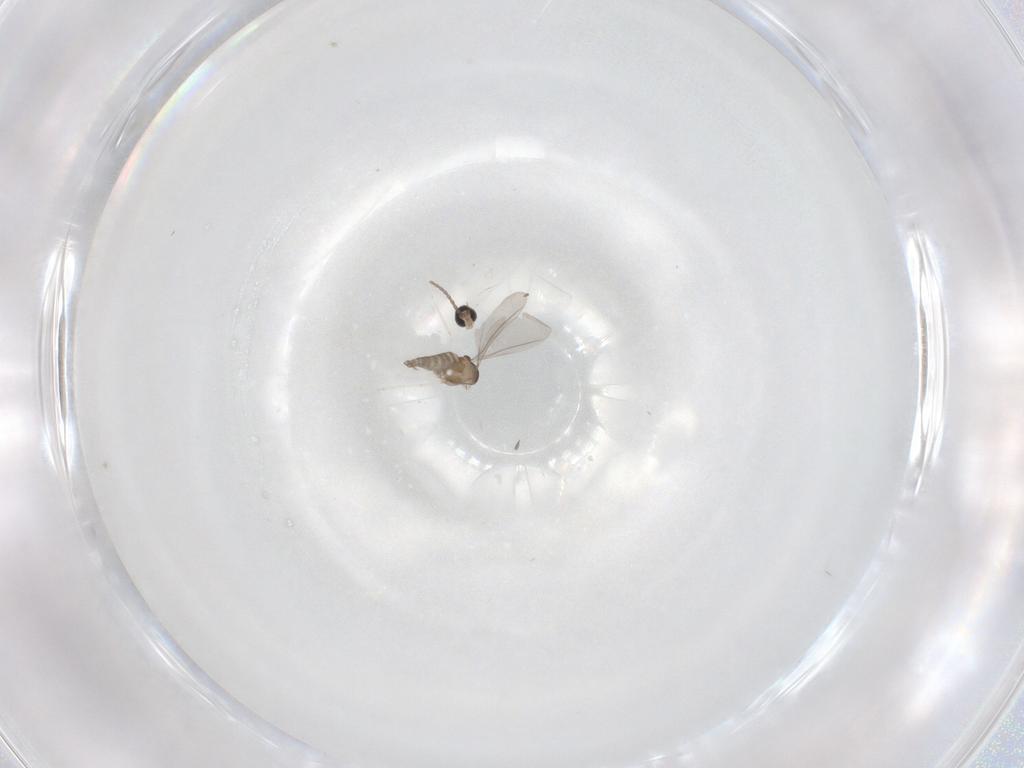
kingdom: Animalia
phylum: Arthropoda
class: Insecta
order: Diptera
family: Cecidomyiidae
